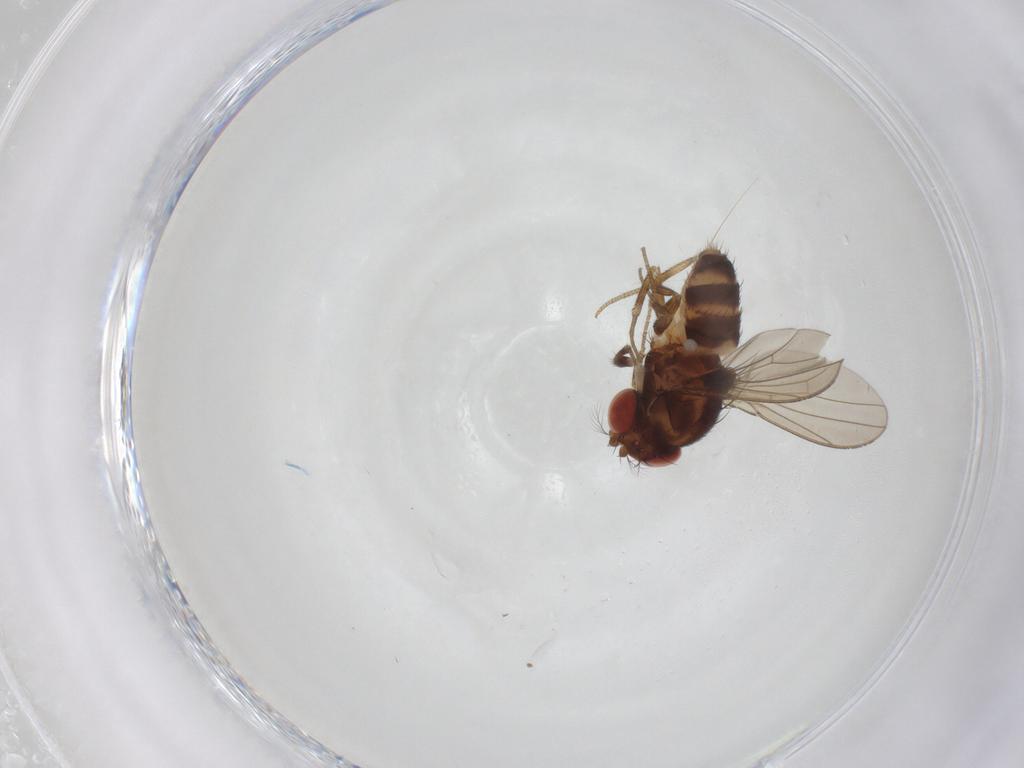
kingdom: Animalia
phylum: Arthropoda
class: Insecta
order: Diptera
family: Drosophilidae
